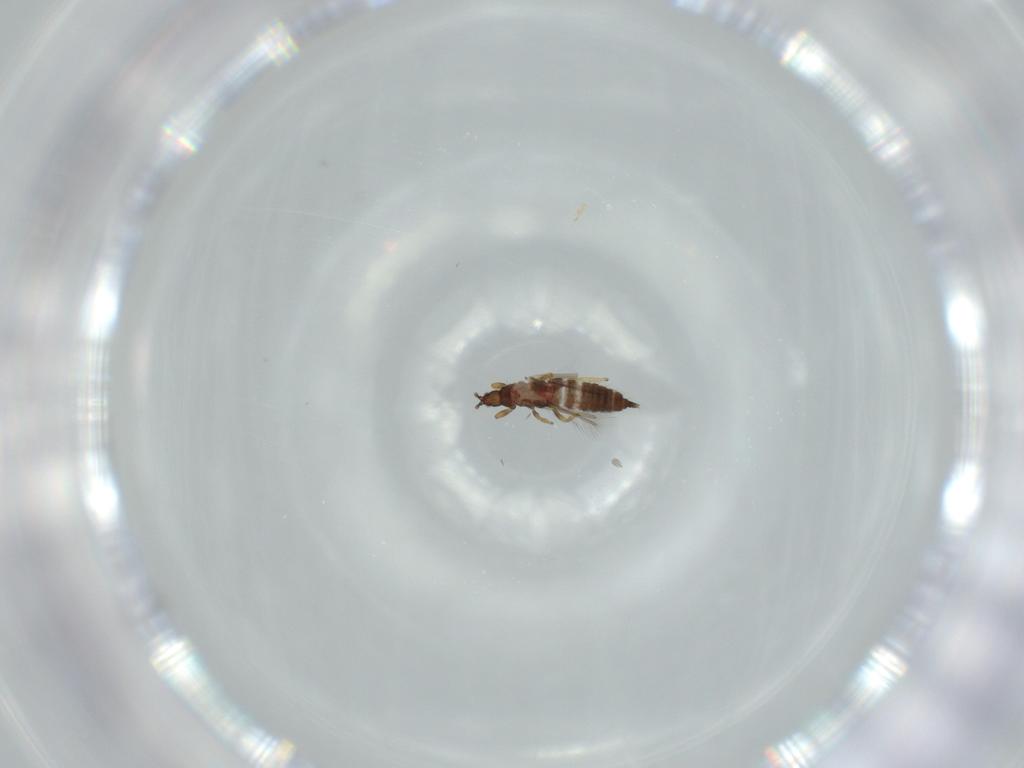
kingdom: Animalia
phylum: Arthropoda
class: Insecta
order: Thysanoptera
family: Phlaeothripidae
